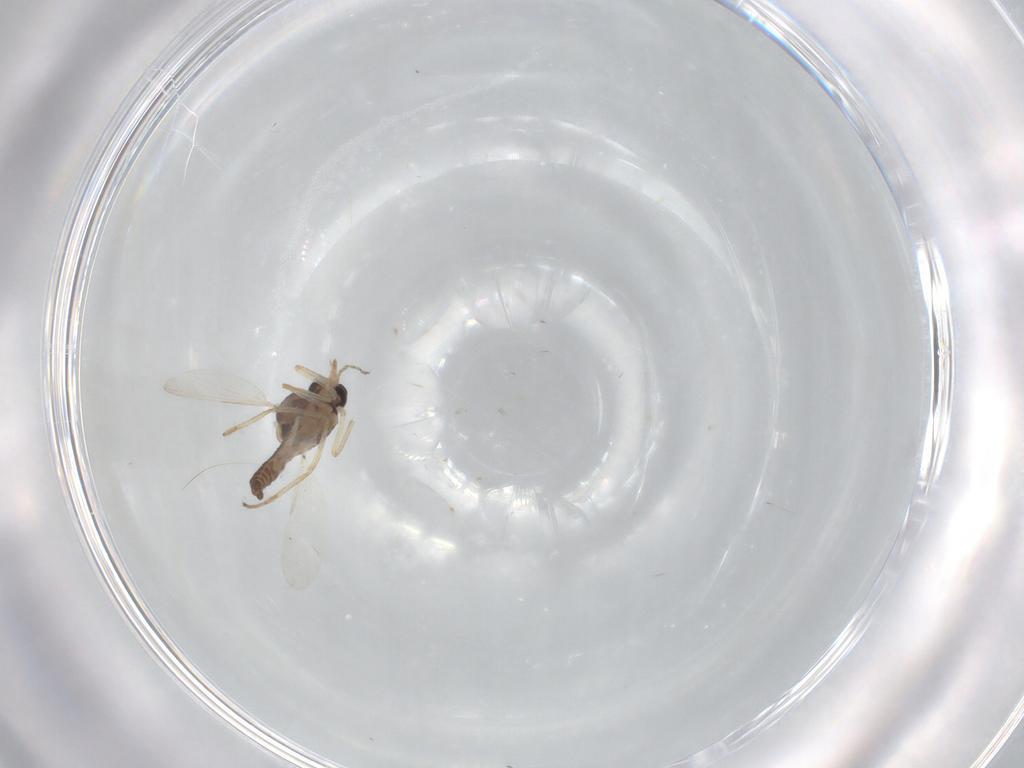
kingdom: Animalia
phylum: Arthropoda
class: Insecta
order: Diptera
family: Ceratopogonidae
